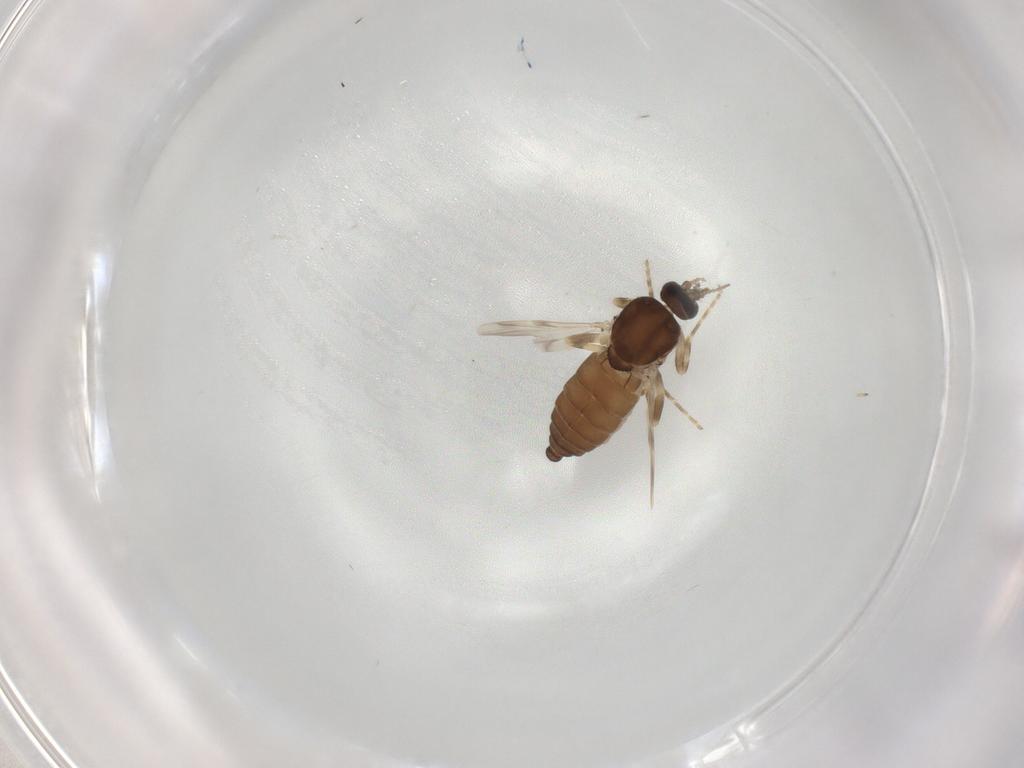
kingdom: Animalia
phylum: Arthropoda
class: Insecta
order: Diptera
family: Ceratopogonidae
